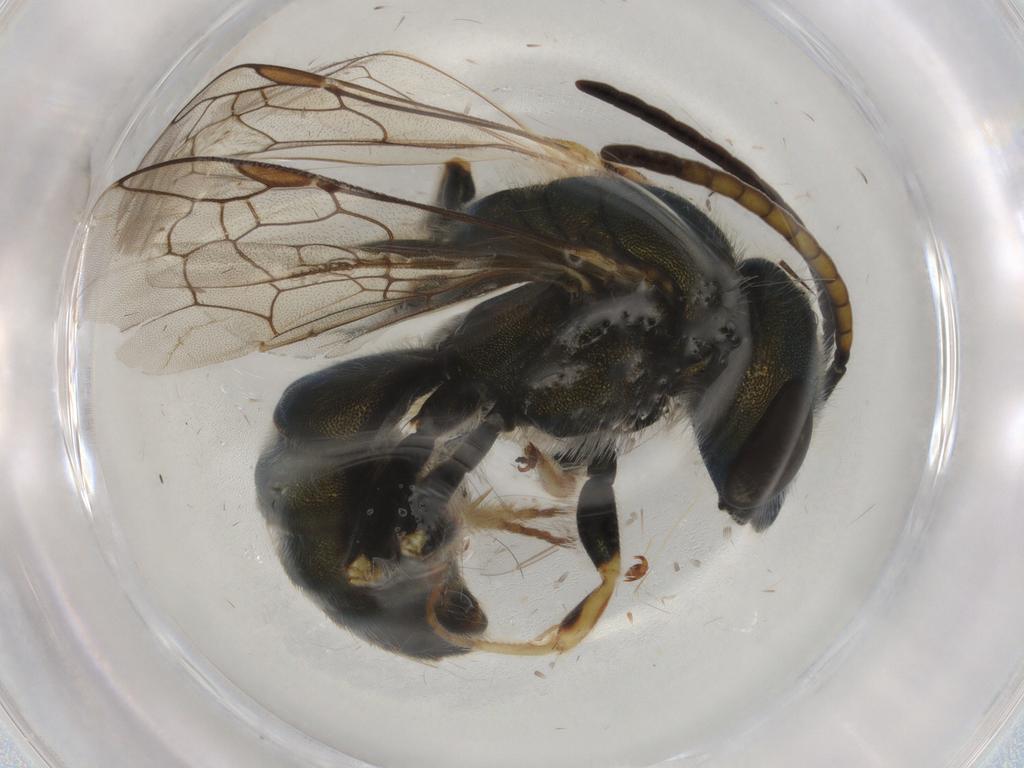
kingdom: Animalia
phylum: Arthropoda
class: Insecta
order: Hymenoptera
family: Halictidae
